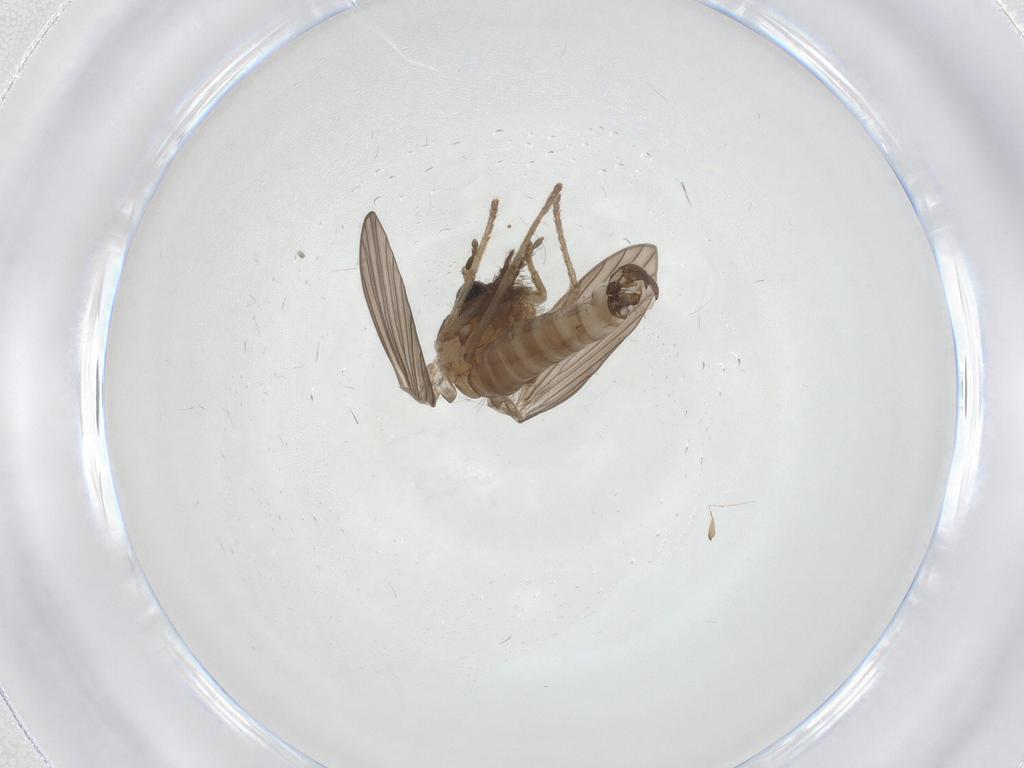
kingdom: Animalia
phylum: Arthropoda
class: Insecta
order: Diptera
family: Psychodidae
